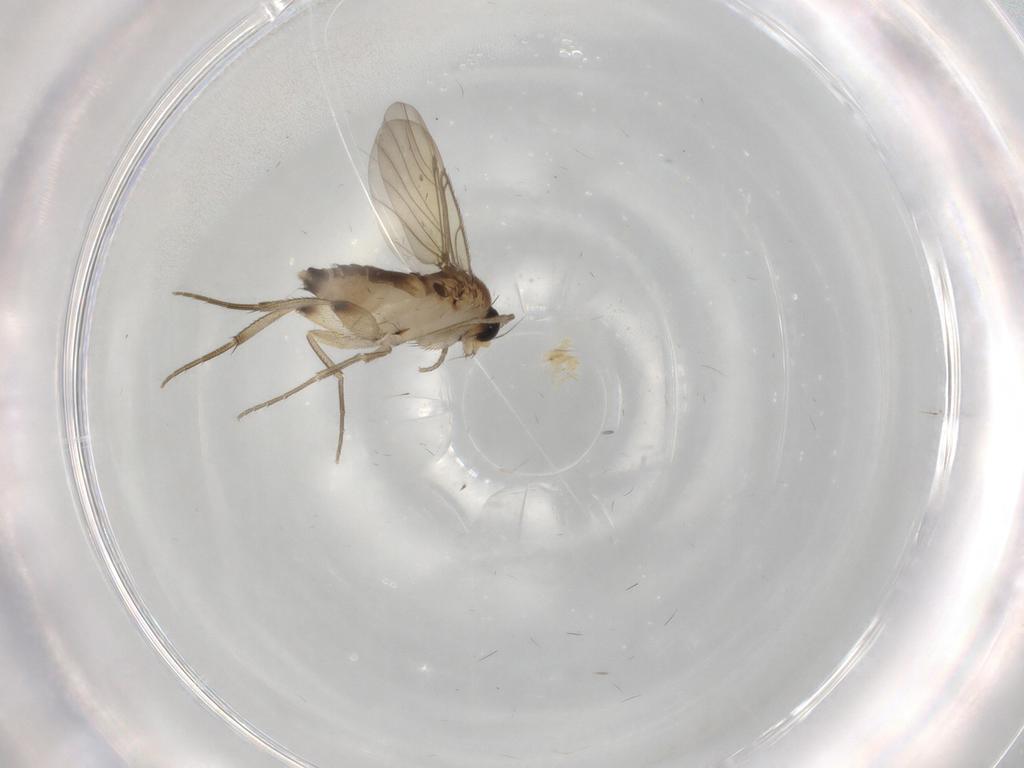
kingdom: Animalia
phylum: Arthropoda
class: Insecta
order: Diptera
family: Phoridae
